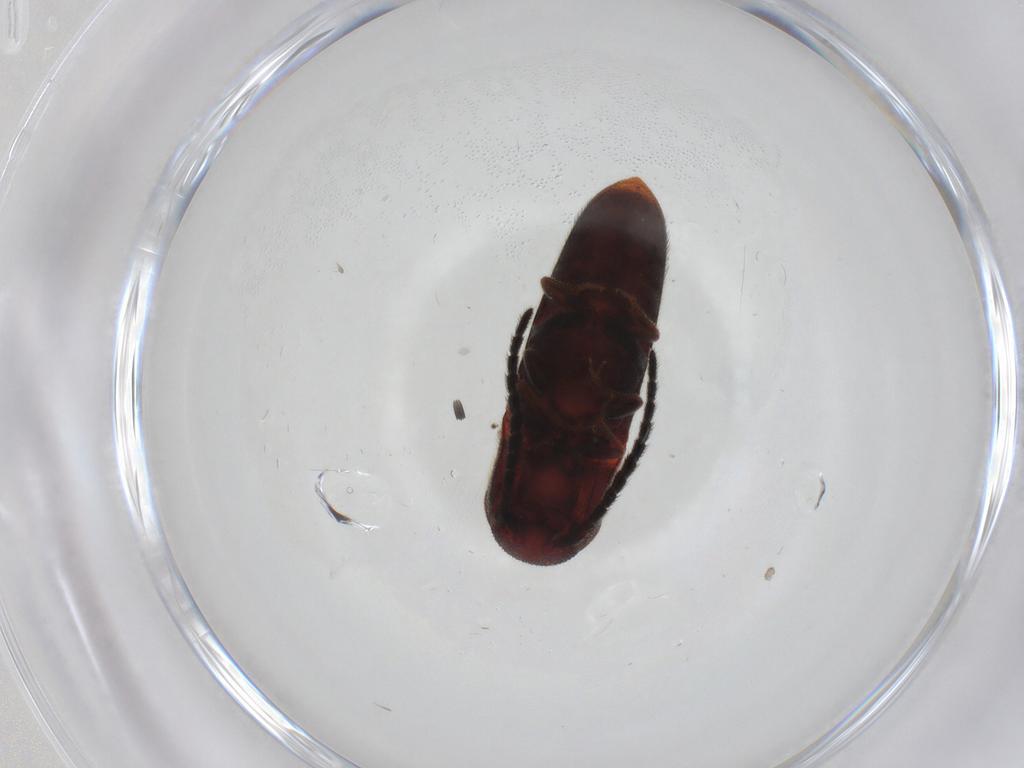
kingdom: Animalia
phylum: Arthropoda
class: Insecta
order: Coleoptera
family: Eucnemidae
